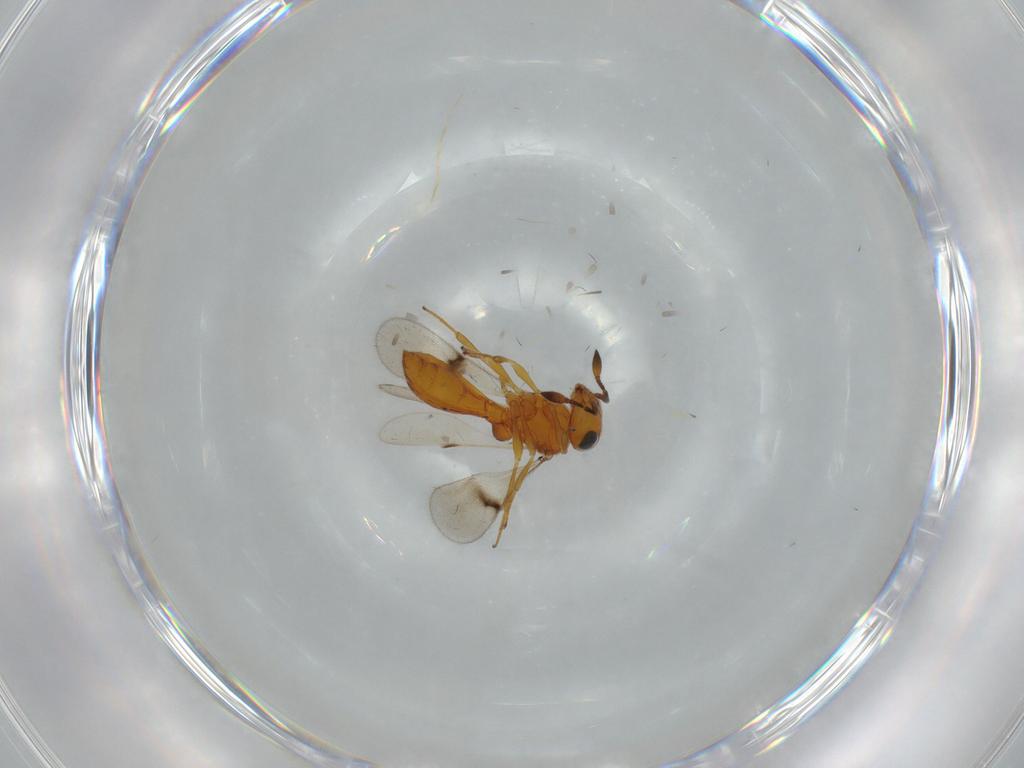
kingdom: Animalia
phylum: Arthropoda
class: Insecta
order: Hymenoptera
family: Scelionidae
